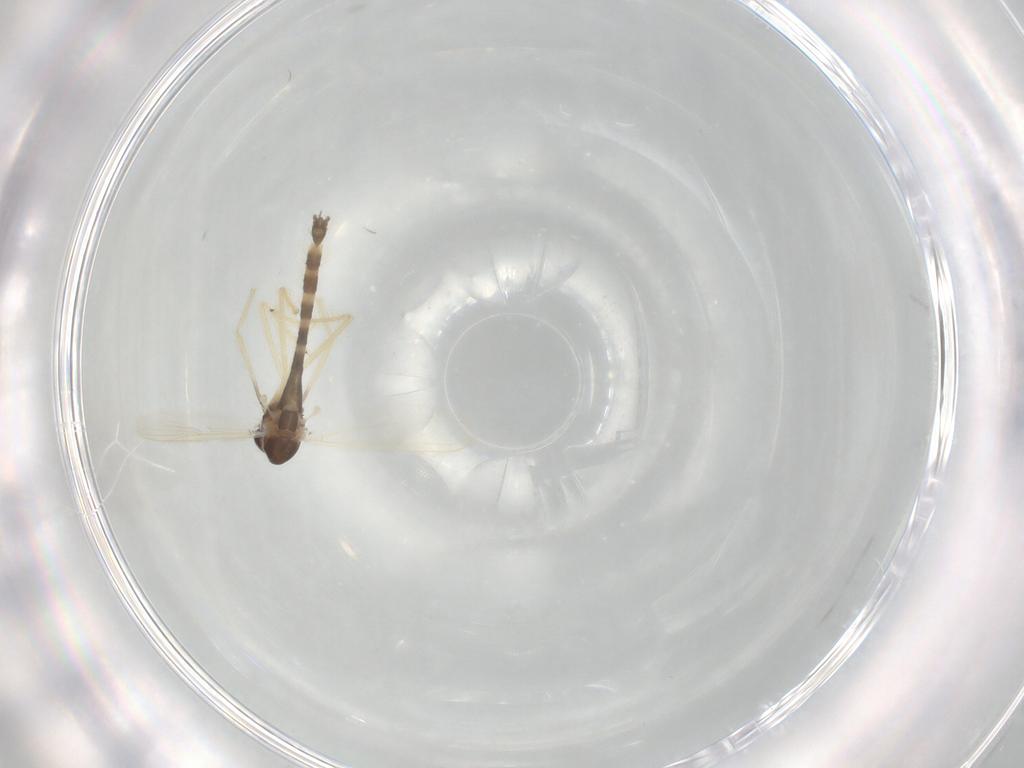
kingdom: Animalia
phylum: Arthropoda
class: Insecta
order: Diptera
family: Chironomidae
